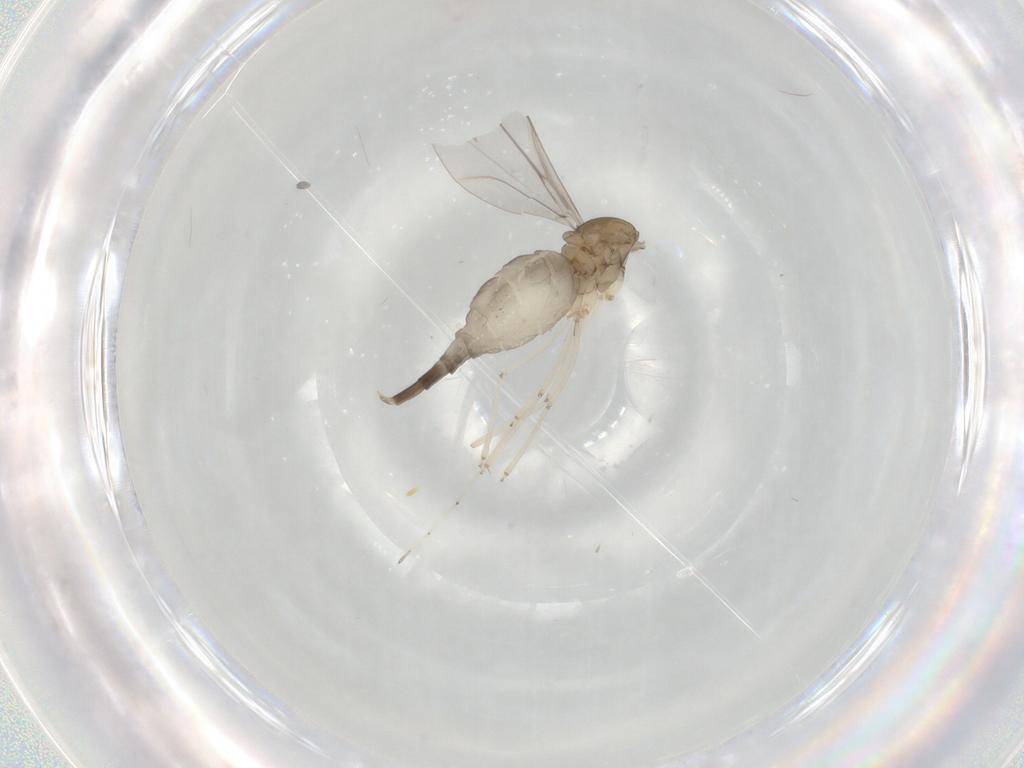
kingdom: Animalia
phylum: Arthropoda
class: Insecta
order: Diptera
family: Cecidomyiidae
